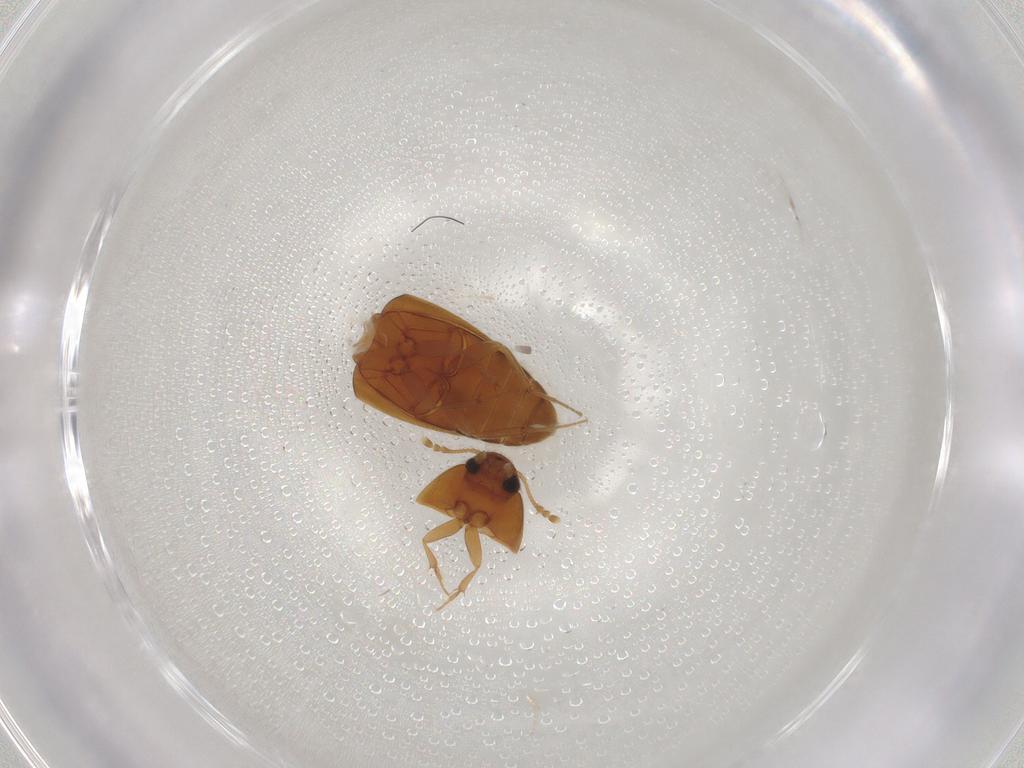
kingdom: Animalia
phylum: Arthropoda
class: Insecta
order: Coleoptera
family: Mycetophagidae
